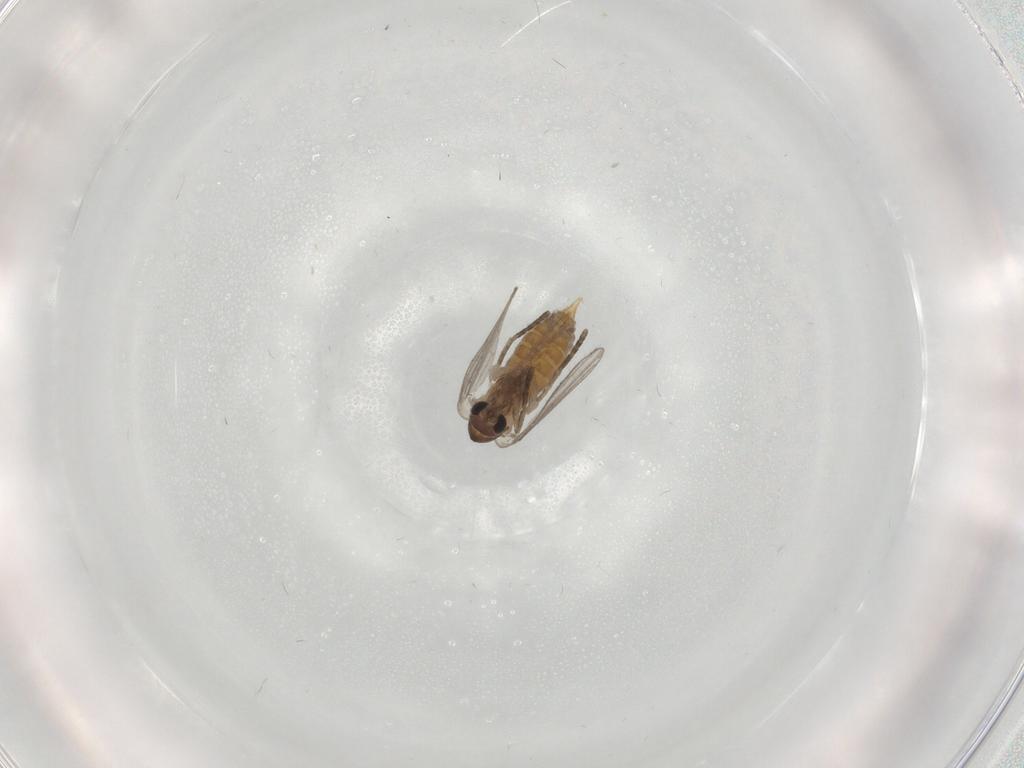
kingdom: Animalia
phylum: Arthropoda
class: Insecta
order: Diptera
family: Psychodidae
